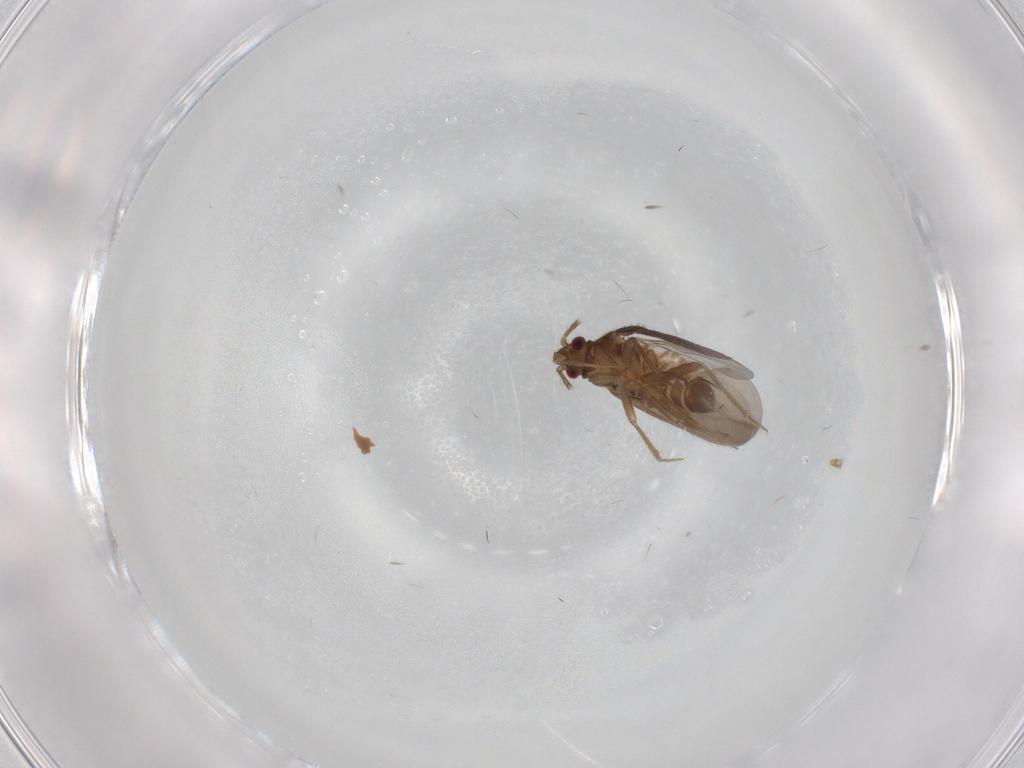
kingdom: Animalia
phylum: Arthropoda
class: Insecta
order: Hemiptera
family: Ceratocombidae
